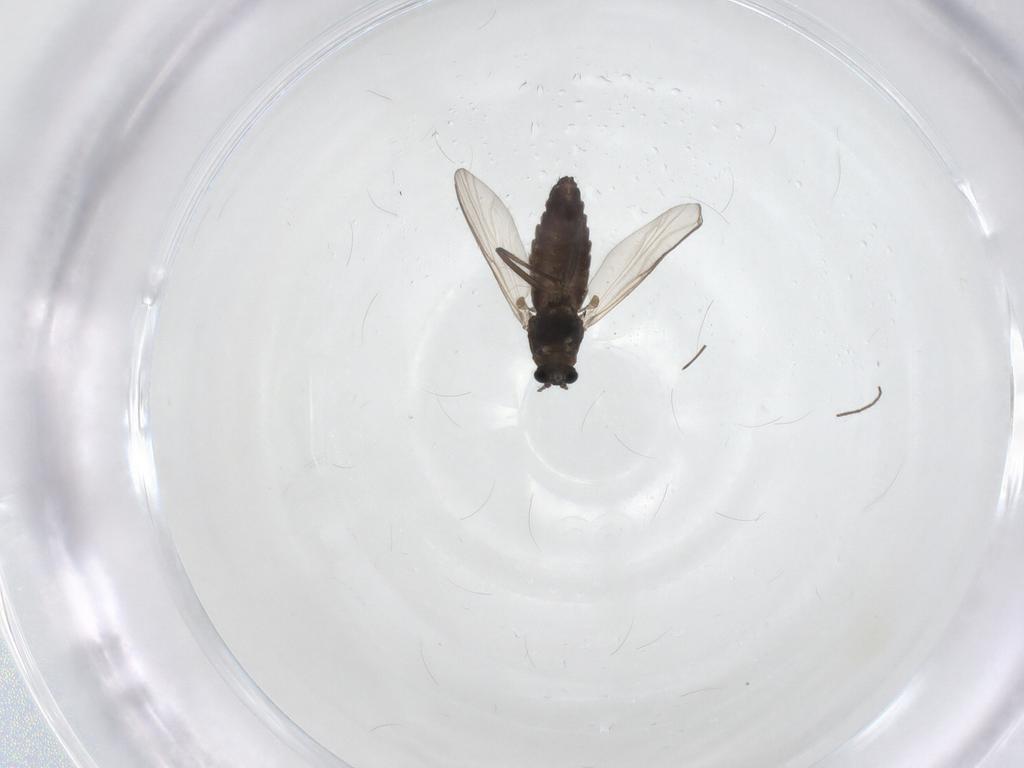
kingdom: Animalia
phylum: Arthropoda
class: Insecta
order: Diptera
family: Chironomidae
